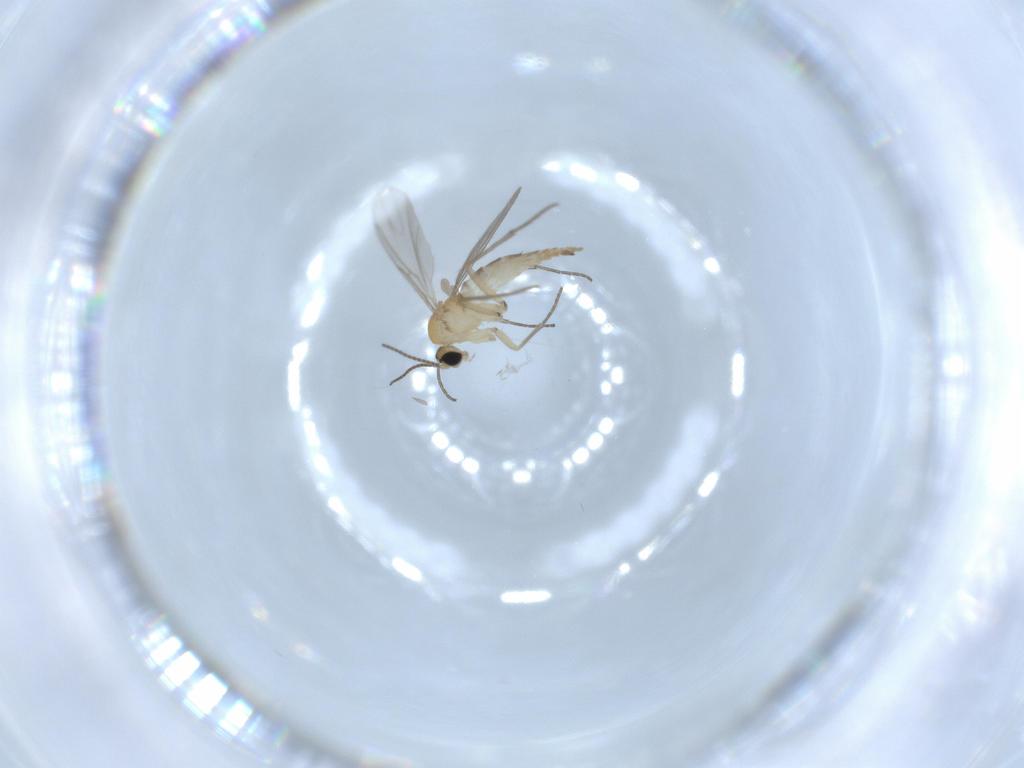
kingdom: Animalia
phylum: Arthropoda
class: Insecta
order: Diptera
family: Sciaridae
